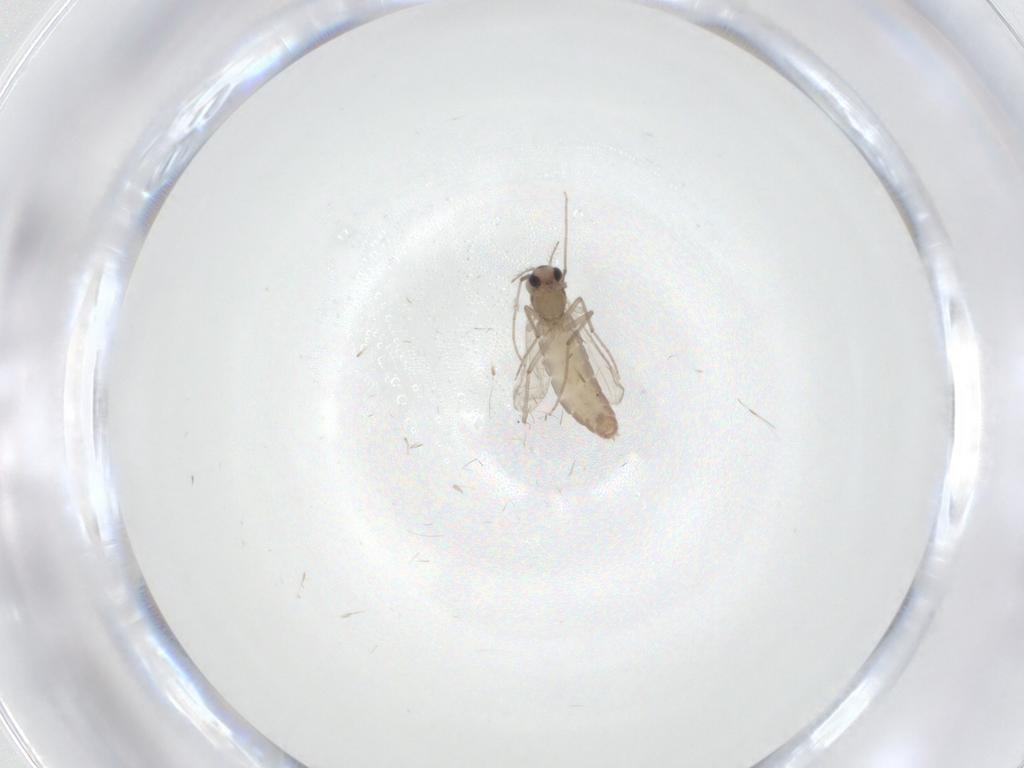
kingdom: Animalia
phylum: Arthropoda
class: Insecta
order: Diptera
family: Chironomidae
